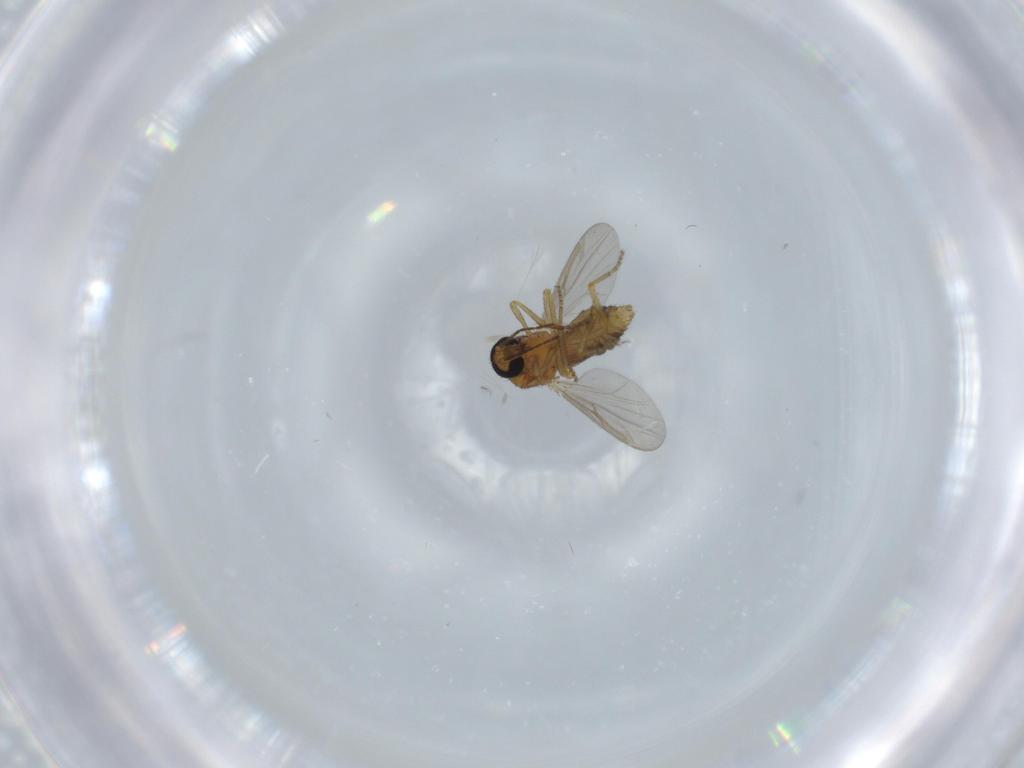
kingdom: Animalia
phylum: Arthropoda
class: Insecta
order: Diptera
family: Ceratopogonidae
